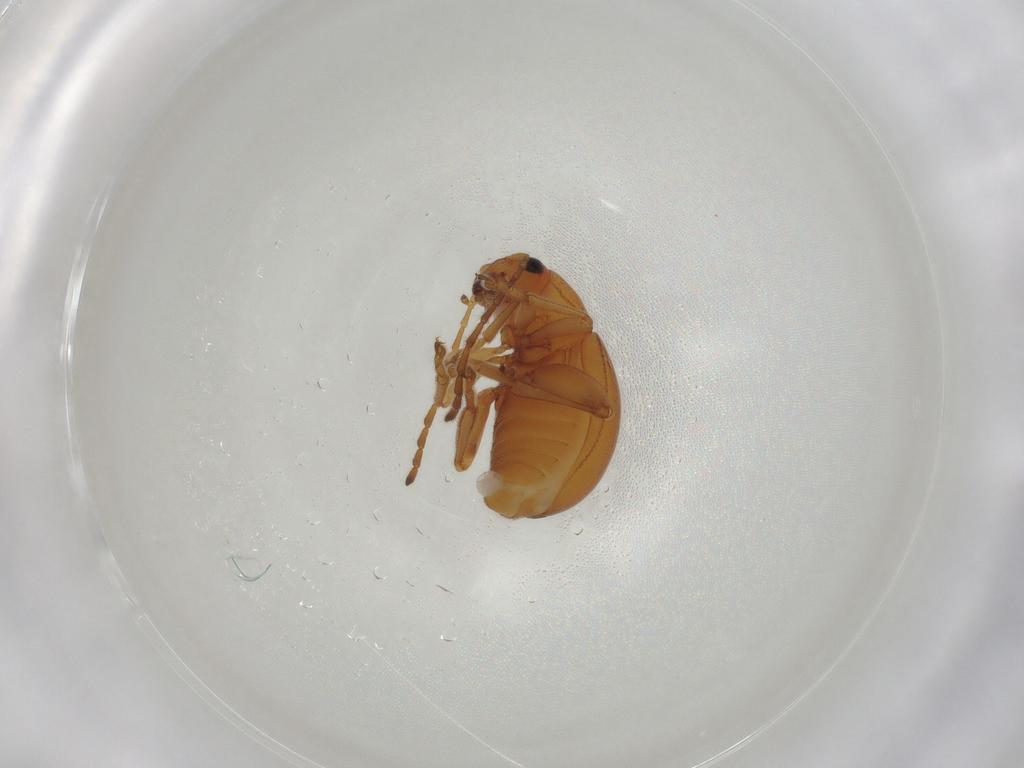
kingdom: Animalia
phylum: Arthropoda
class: Insecta
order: Coleoptera
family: Chrysomelidae
